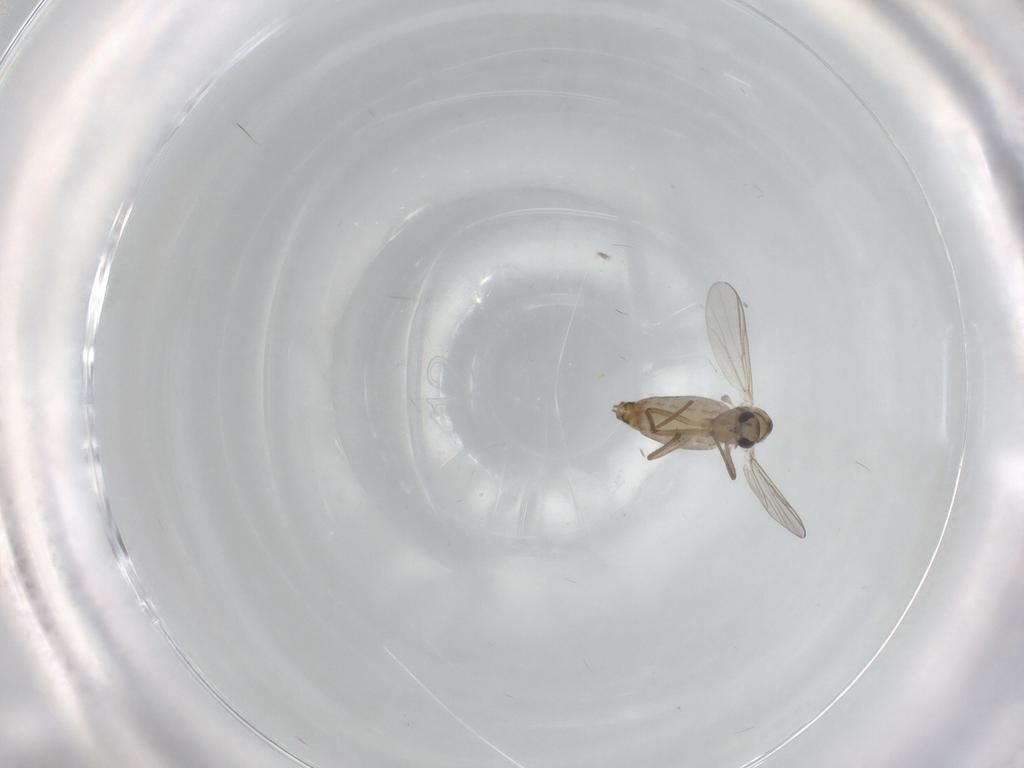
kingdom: Animalia
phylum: Arthropoda
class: Insecta
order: Diptera
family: Chironomidae
